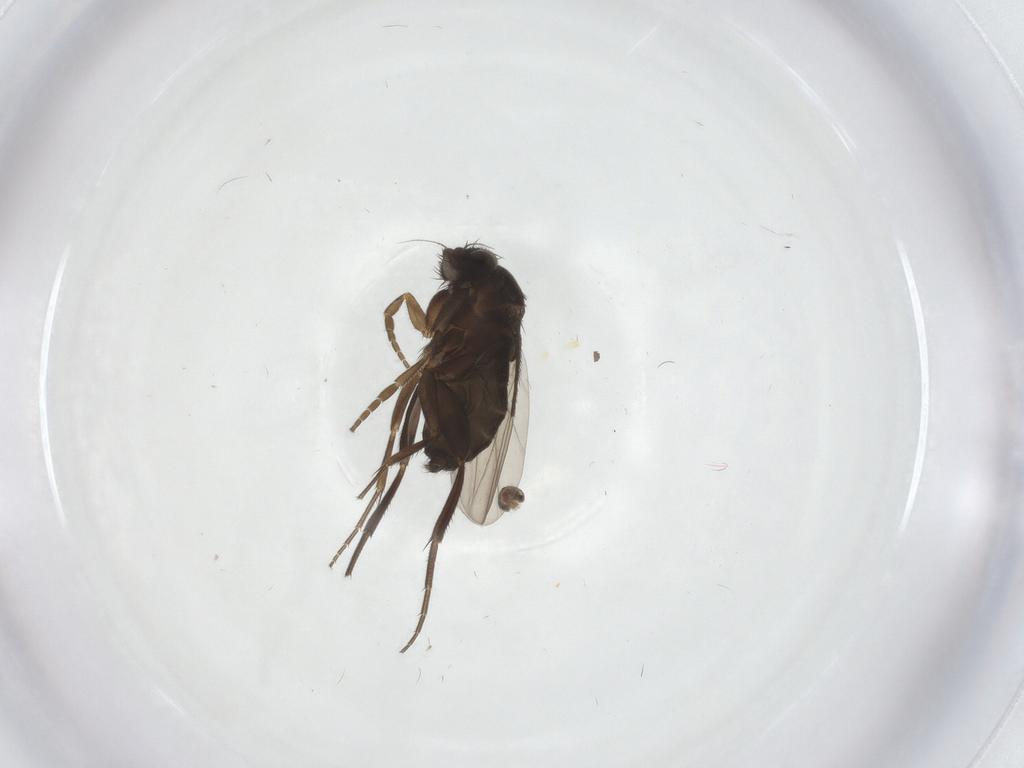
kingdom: Animalia
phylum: Arthropoda
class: Insecta
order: Diptera
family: Phoridae
